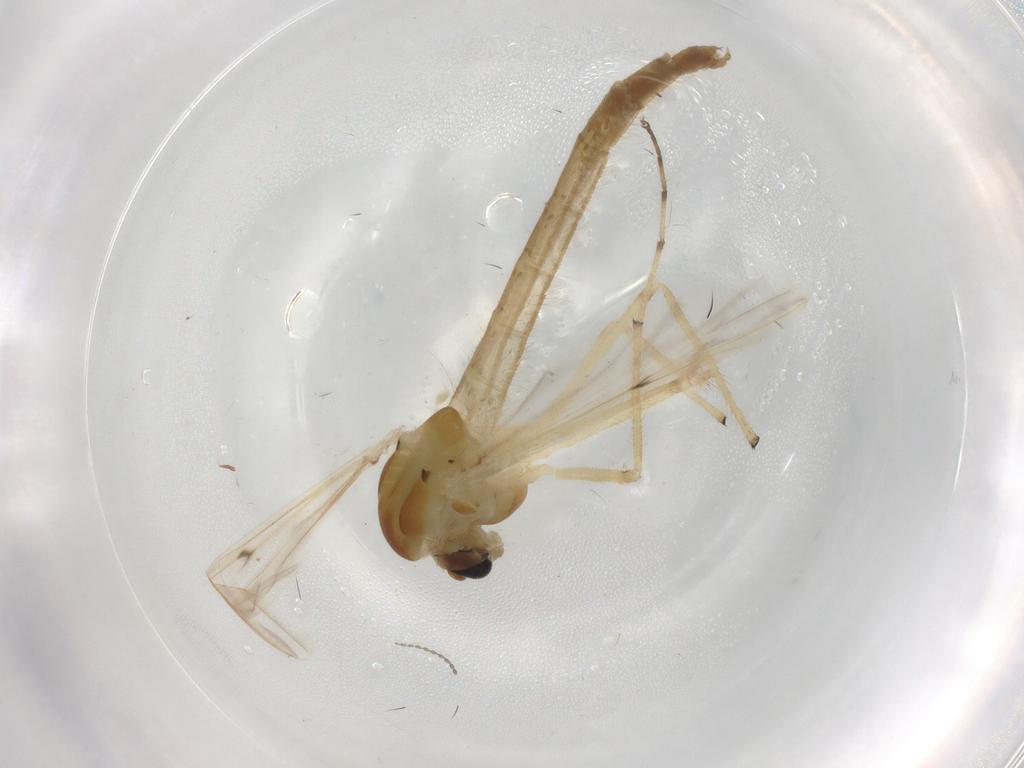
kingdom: Animalia
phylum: Arthropoda
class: Insecta
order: Diptera
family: Chironomidae
